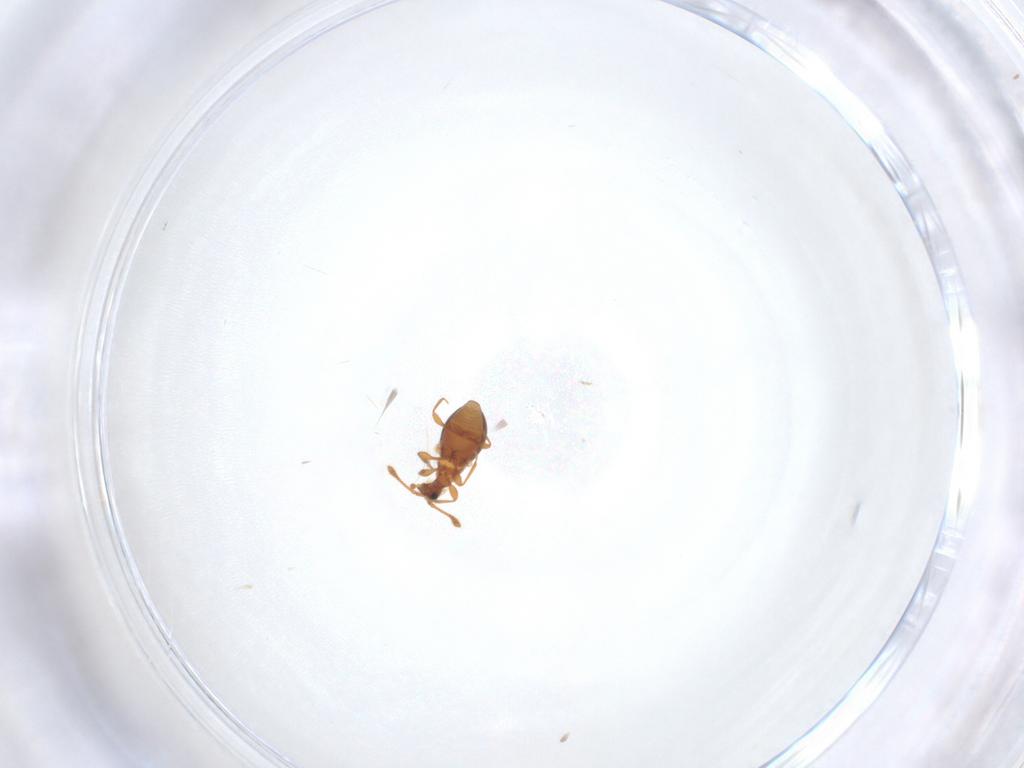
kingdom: Animalia
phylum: Arthropoda
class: Insecta
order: Coleoptera
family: Staphylinidae
